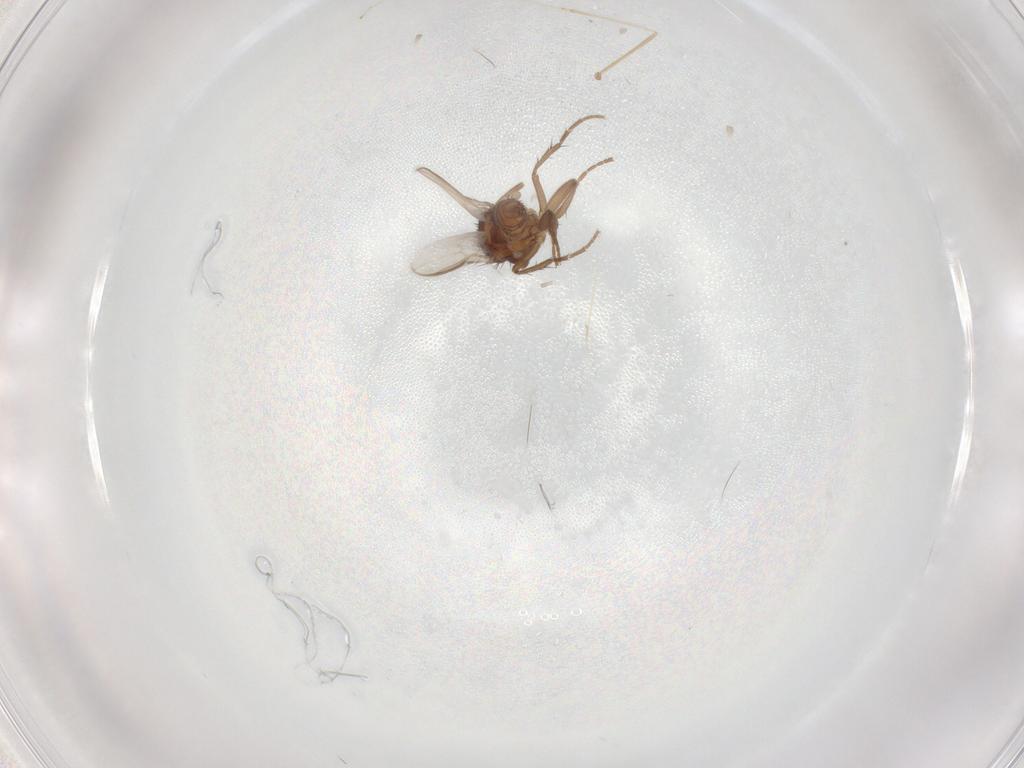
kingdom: Animalia
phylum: Arthropoda
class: Insecta
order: Diptera
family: Cecidomyiidae
